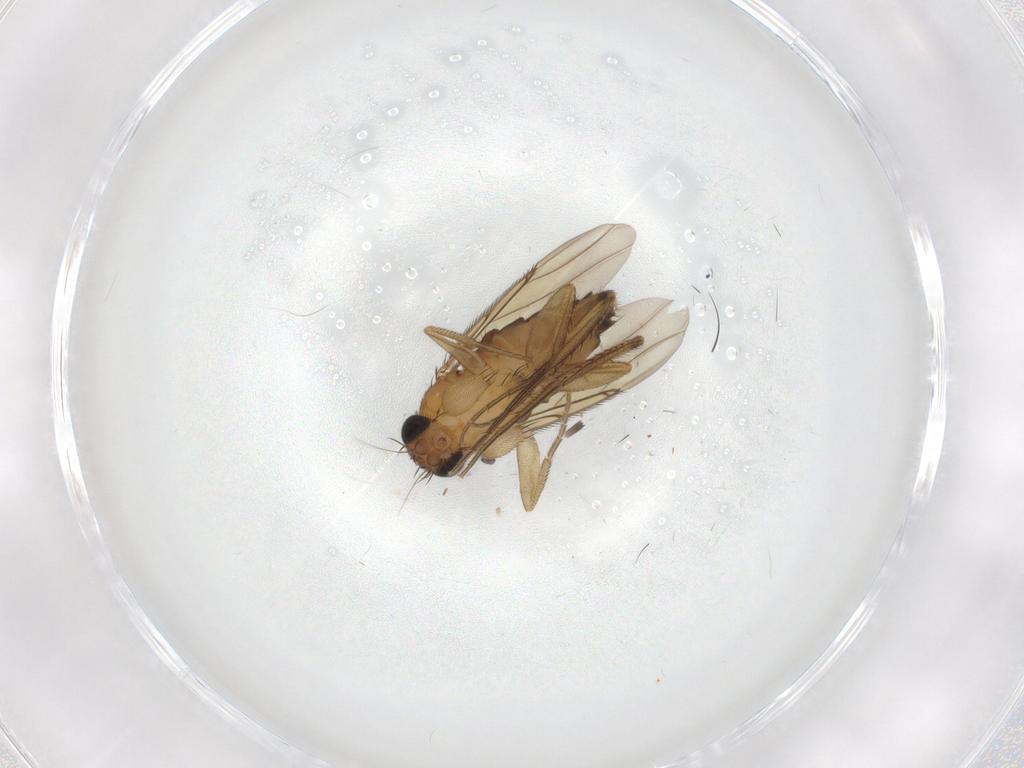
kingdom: Animalia
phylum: Arthropoda
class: Insecta
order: Diptera
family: Phoridae
